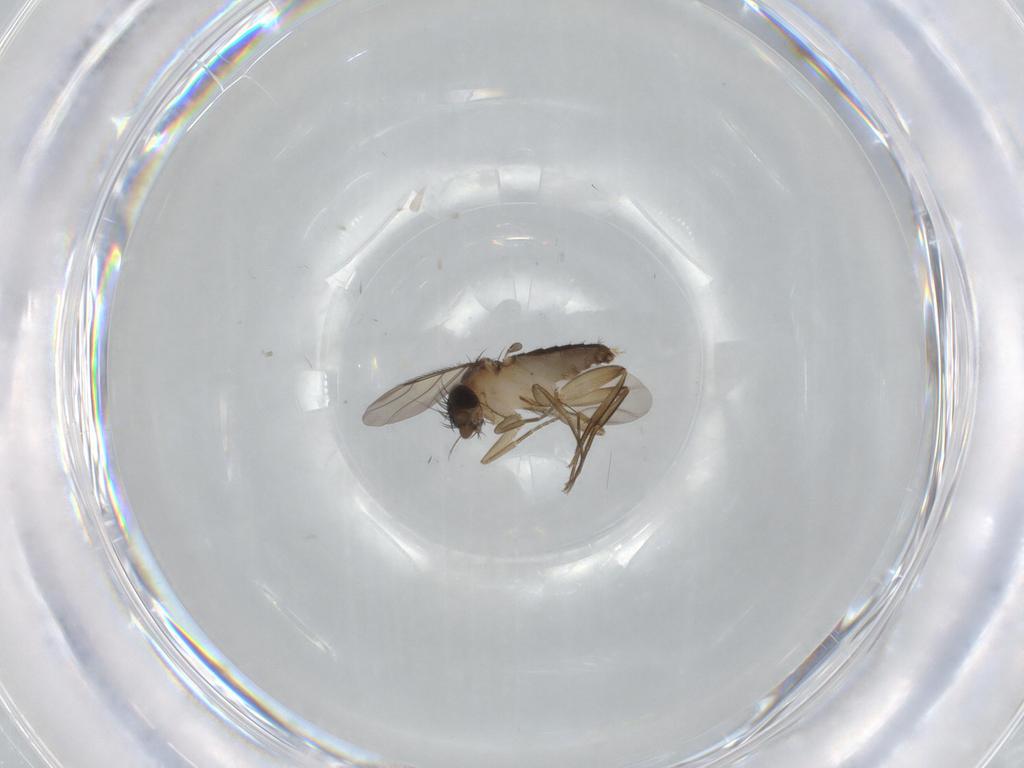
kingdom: Animalia
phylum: Arthropoda
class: Insecta
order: Diptera
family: Phoridae
